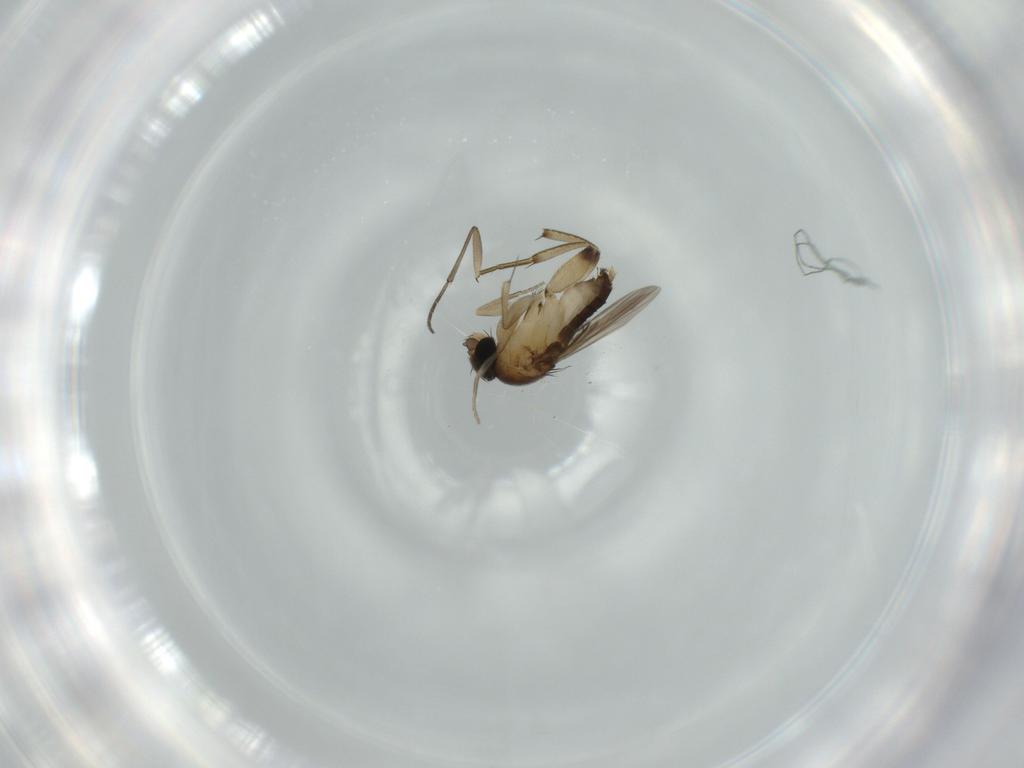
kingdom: Animalia
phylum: Arthropoda
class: Insecta
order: Diptera
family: Phoridae
